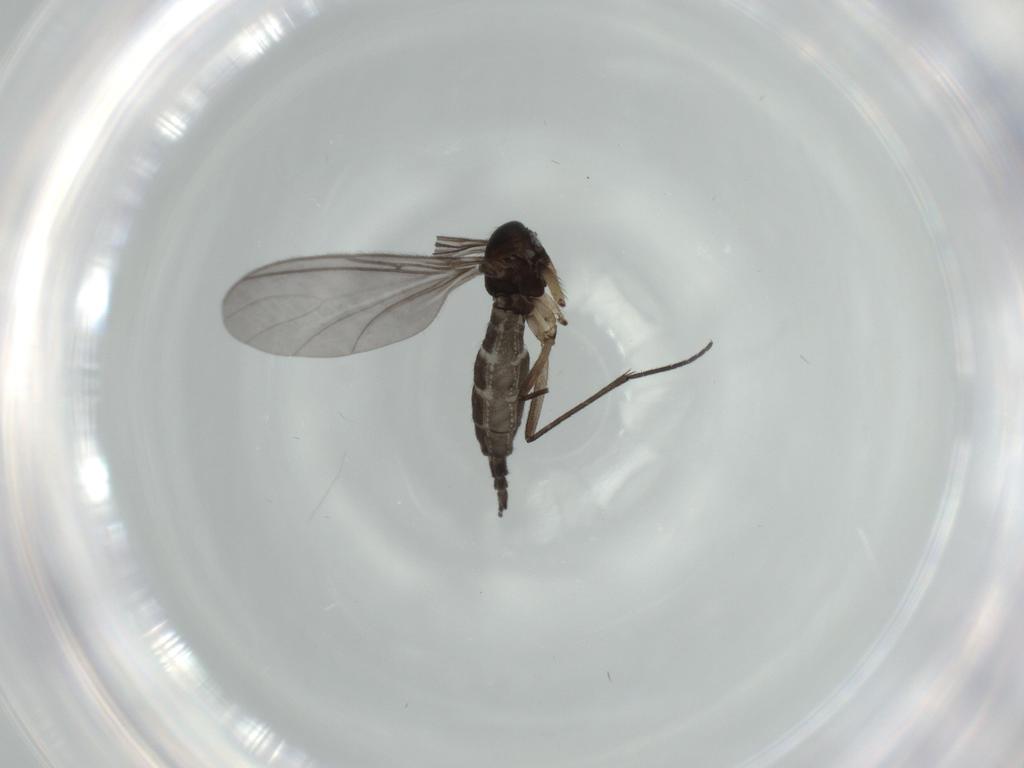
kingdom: Animalia
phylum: Arthropoda
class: Insecta
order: Diptera
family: Sciaridae
